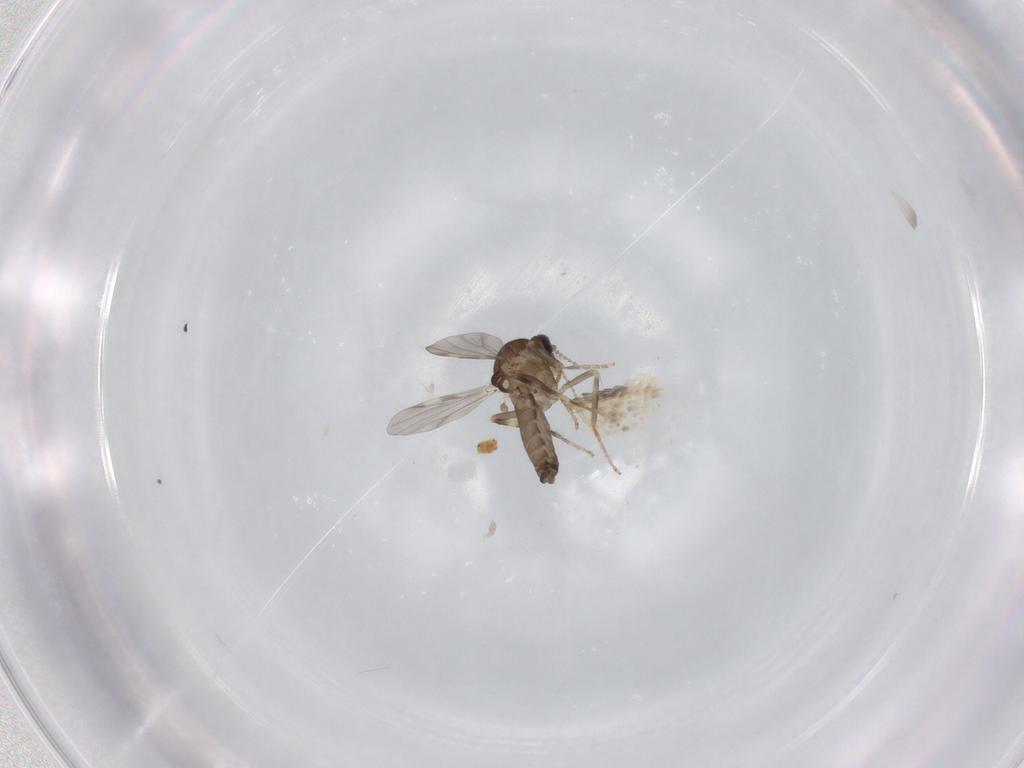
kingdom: Animalia
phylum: Arthropoda
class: Insecta
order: Diptera
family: Ceratopogonidae
